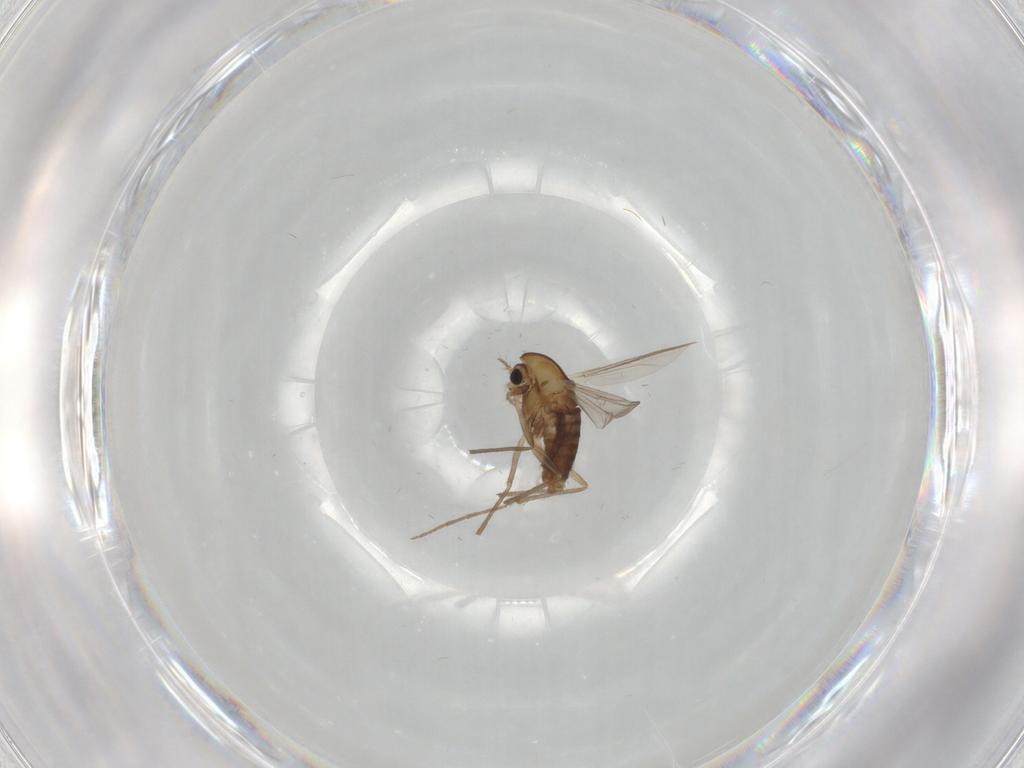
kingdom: Animalia
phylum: Arthropoda
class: Insecta
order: Diptera
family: Chironomidae
